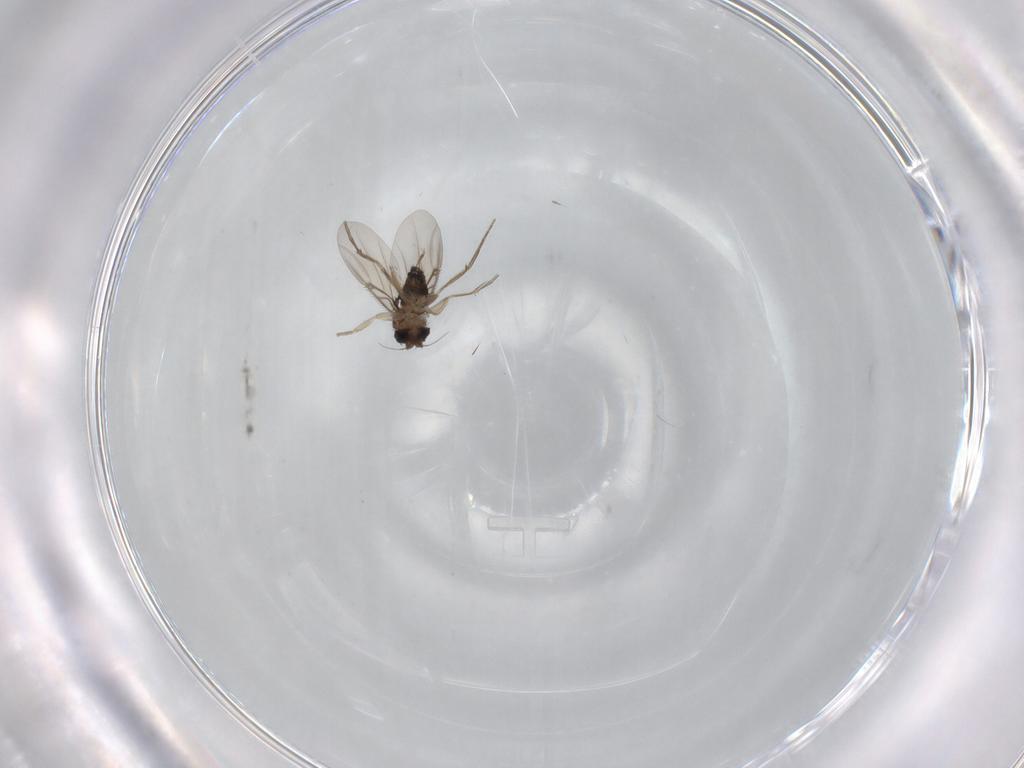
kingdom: Animalia
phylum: Arthropoda
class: Insecta
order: Diptera
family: Phoridae
